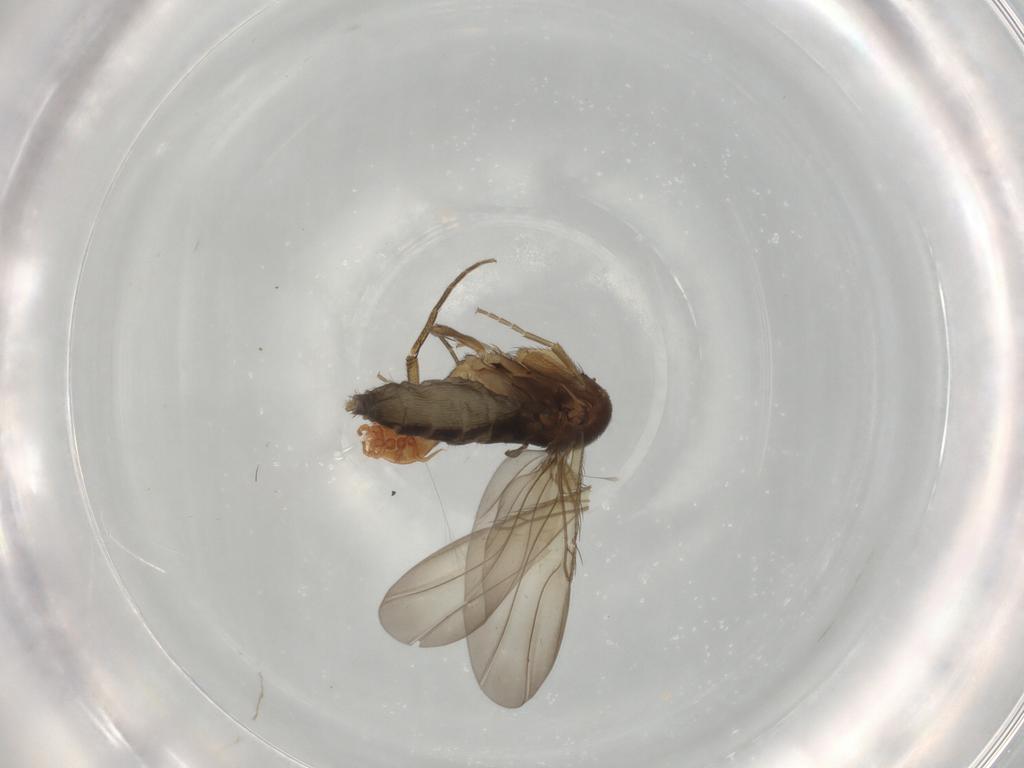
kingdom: Animalia
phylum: Arthropoda
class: Insecta
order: Diptera
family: Phoridae
